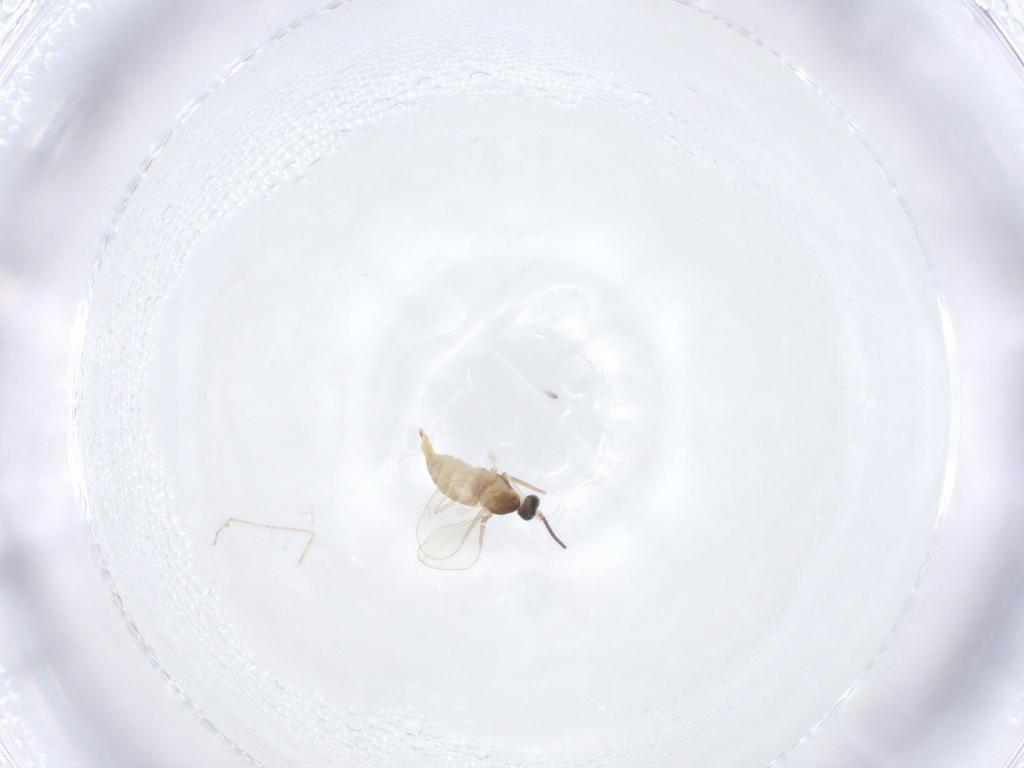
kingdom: Animalia
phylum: Arthropoda
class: Insecta
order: Diptera
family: Cecidomyiidae
